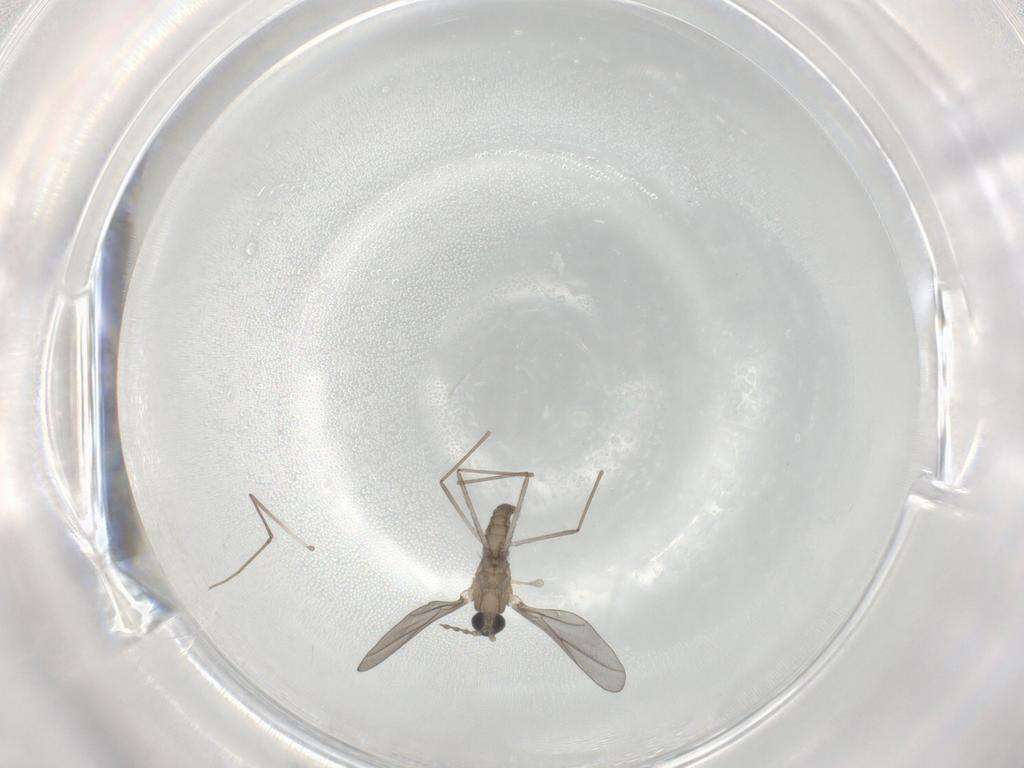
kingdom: Animalia
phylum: Arthropoda
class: Insecta
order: Diptera
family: Cecidomyiidae
